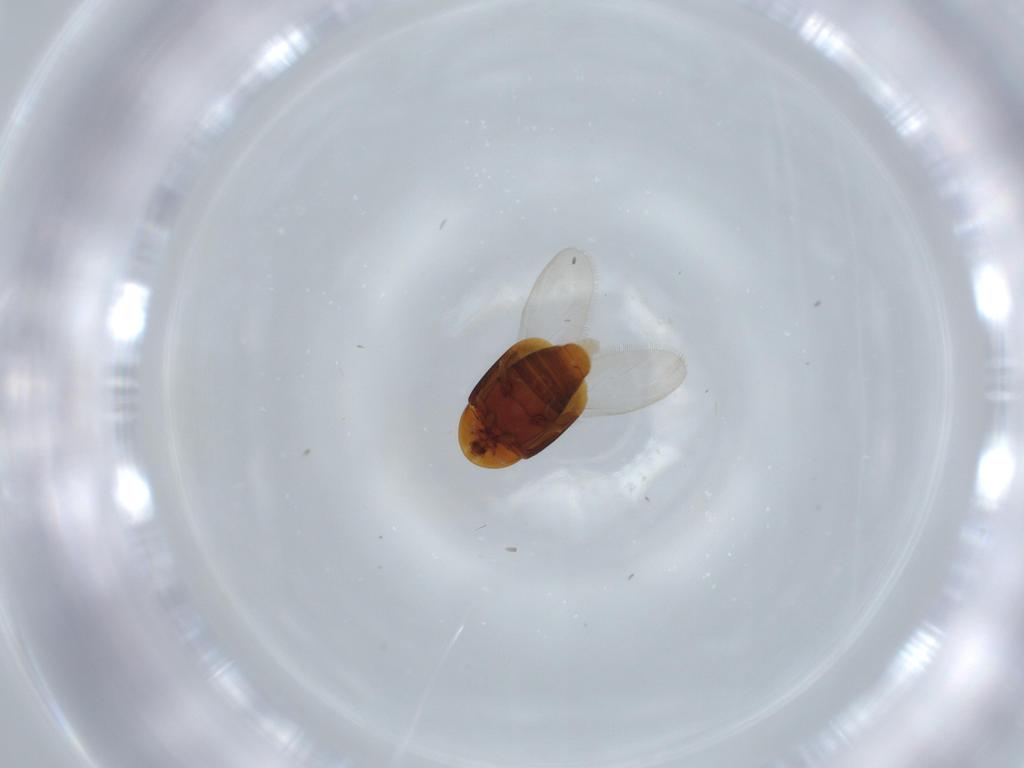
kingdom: Animalia
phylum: Arthropoda
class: Insecta
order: Coleoptera
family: Corylophidae
